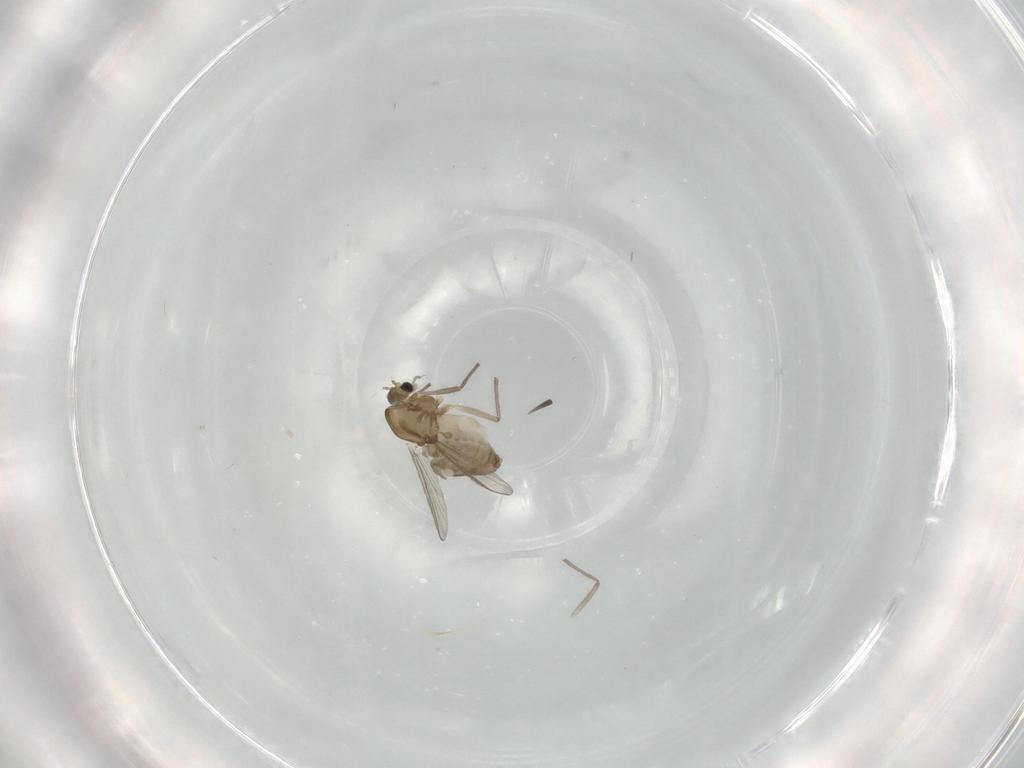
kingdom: Animalia
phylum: Arthropoda
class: Insecta
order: Diptera
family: Chironomidae
